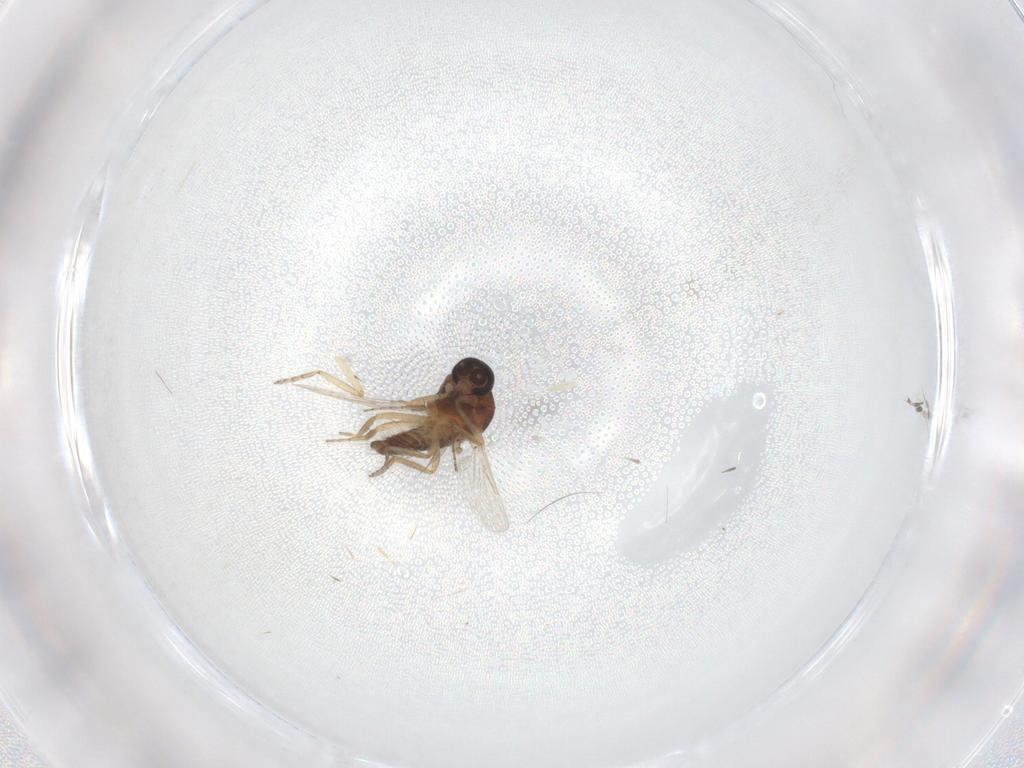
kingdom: Animalia
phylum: Arthropoda
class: Insecta
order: Diptera
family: Ceratopogonidae
